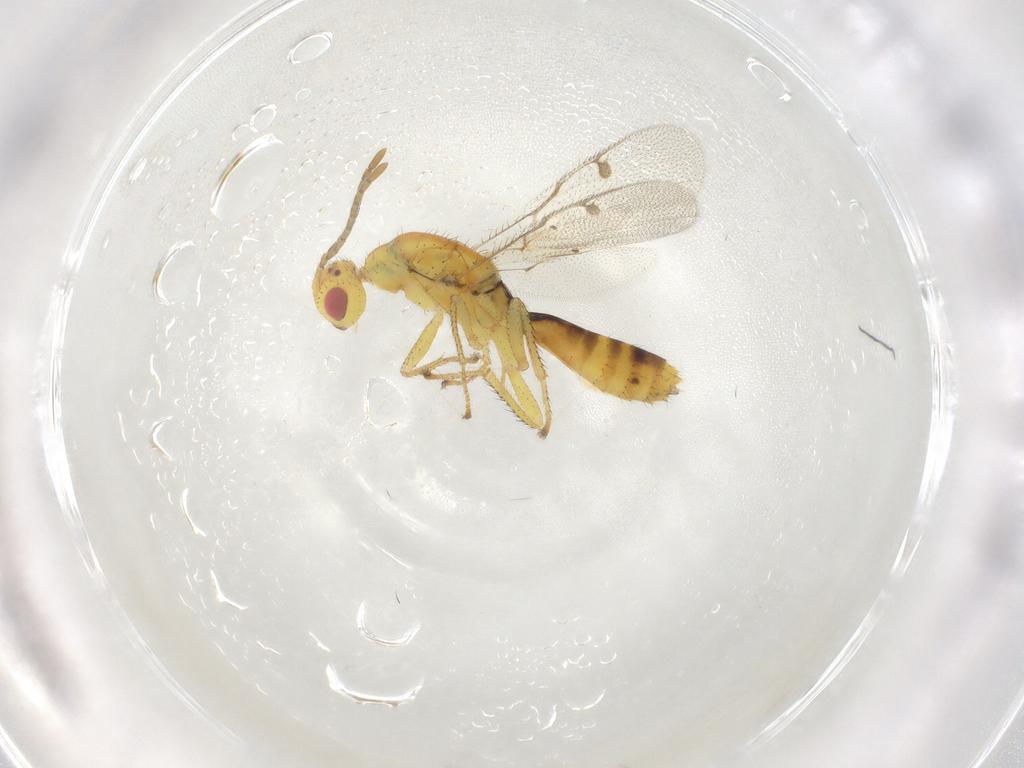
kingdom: Animalia
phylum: Arthropoda
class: Insecta
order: Hymenoptera
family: Megastigmidae
